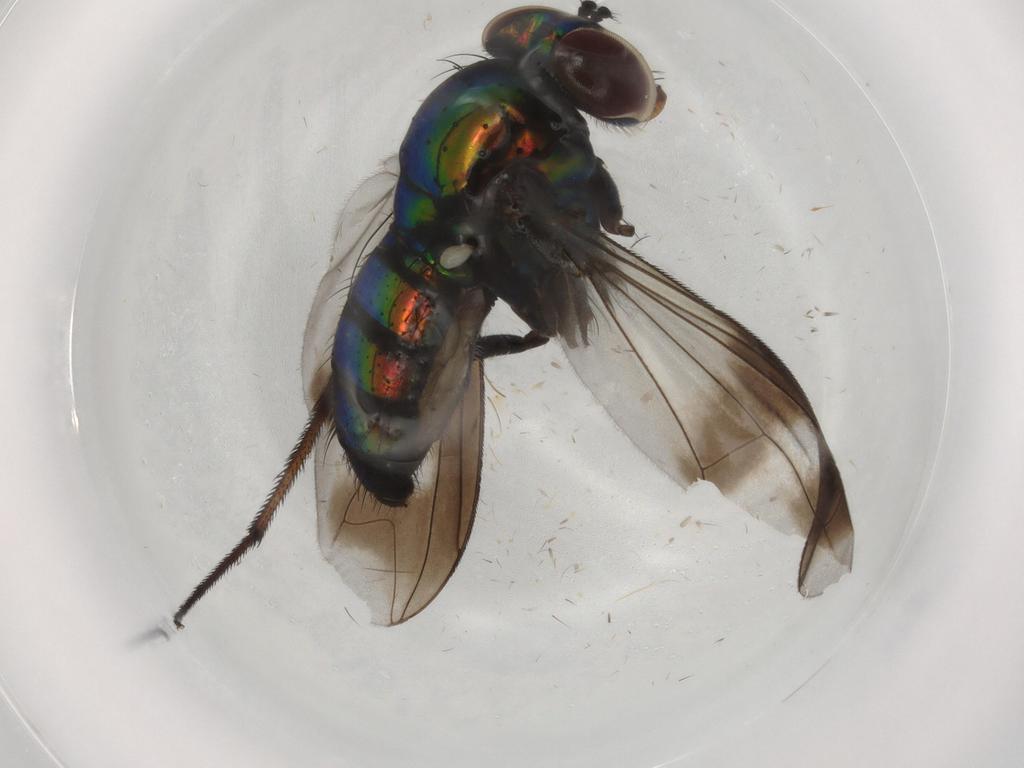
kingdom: Animalia
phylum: Arthropoda
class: Insecta
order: Diptera
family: Dolichopodidae
